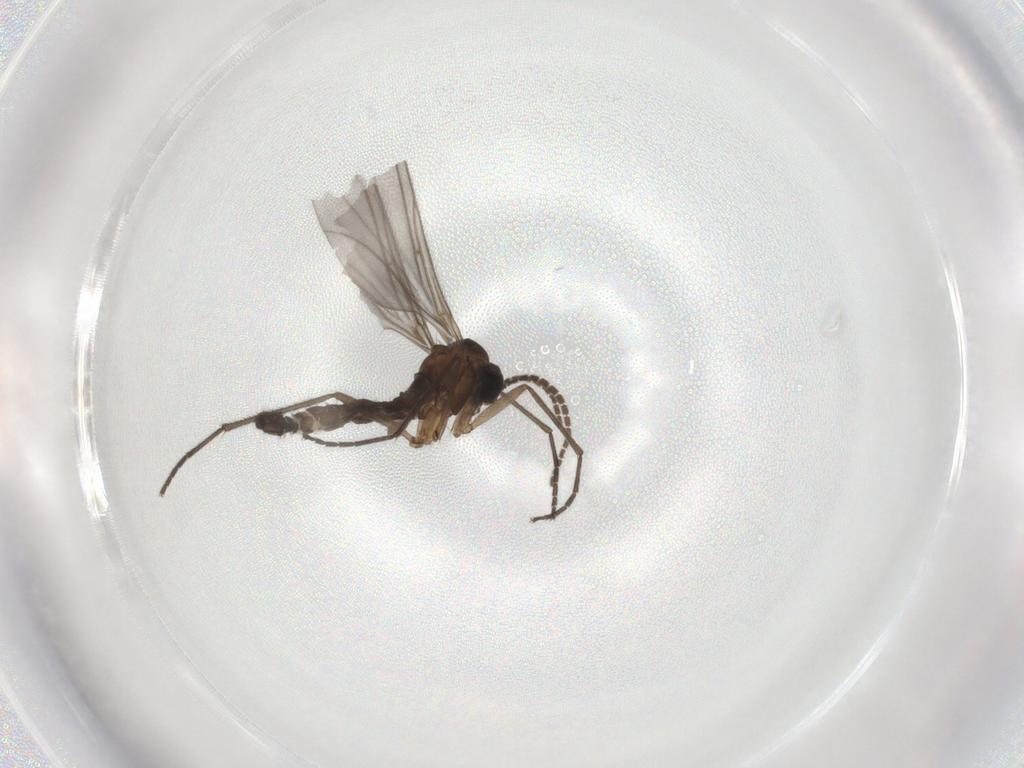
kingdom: Animalia
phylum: Arthropoda
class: Insecta
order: Diptera
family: Sciaridae
